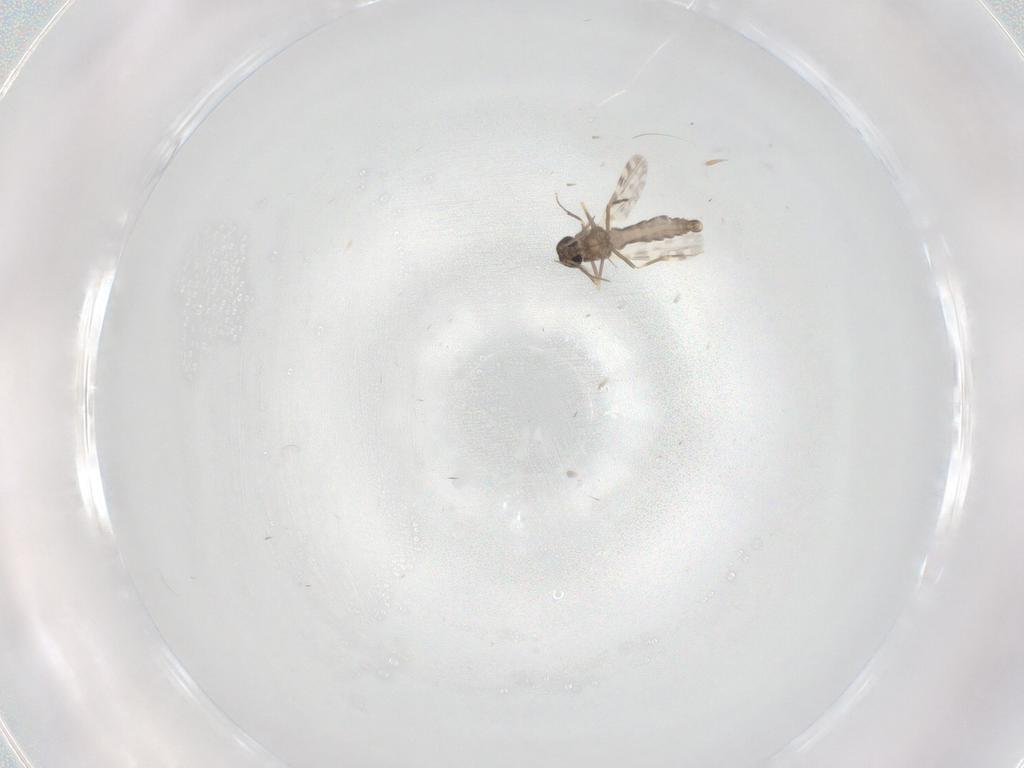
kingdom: Animalia
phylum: Arthropoda
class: Insecta
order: Diptera
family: Ceratopogonidae
